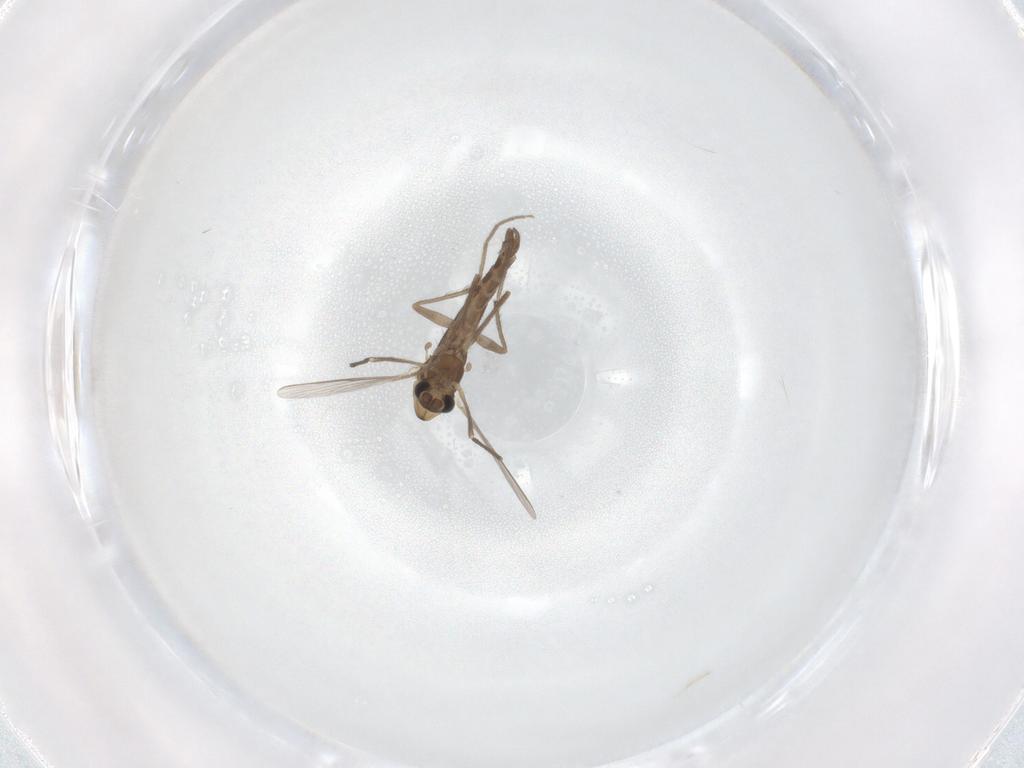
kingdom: Animalia
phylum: Arthropoda
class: Insecta
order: Diptera
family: Chironomidae
